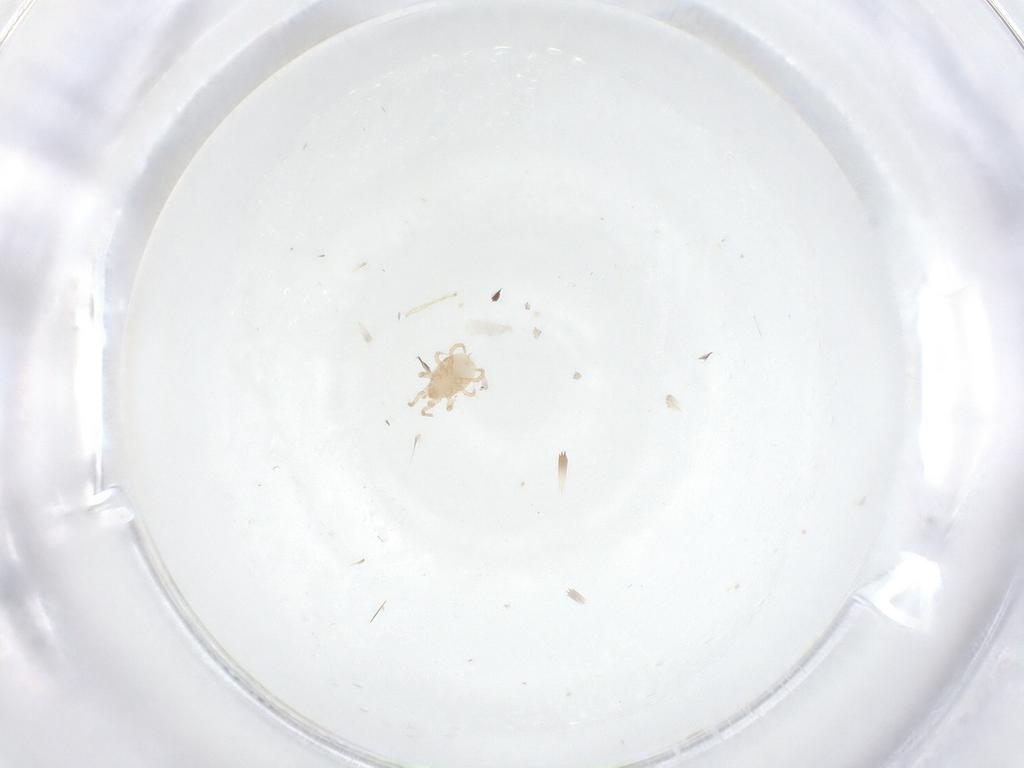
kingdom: Animalia
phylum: Arthropoda
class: Arachnida
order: Mesostigmata
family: Ascidae
